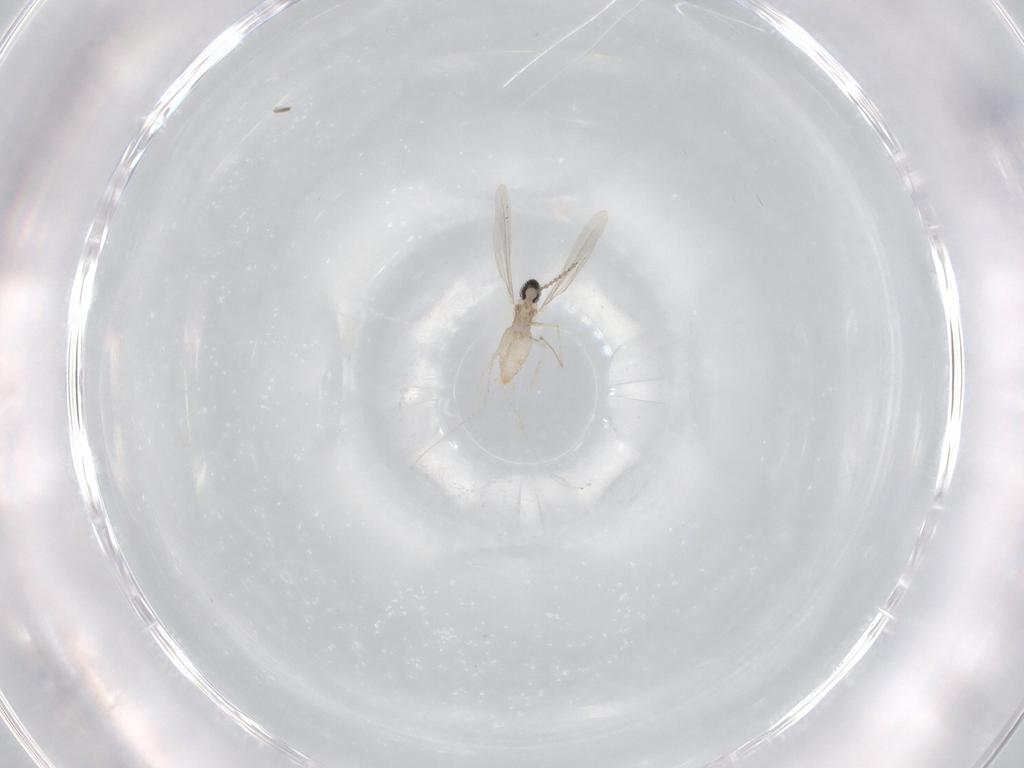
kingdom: Animalia
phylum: Arthropoda
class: Insecta
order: Diptera
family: Cecidomyiidae
